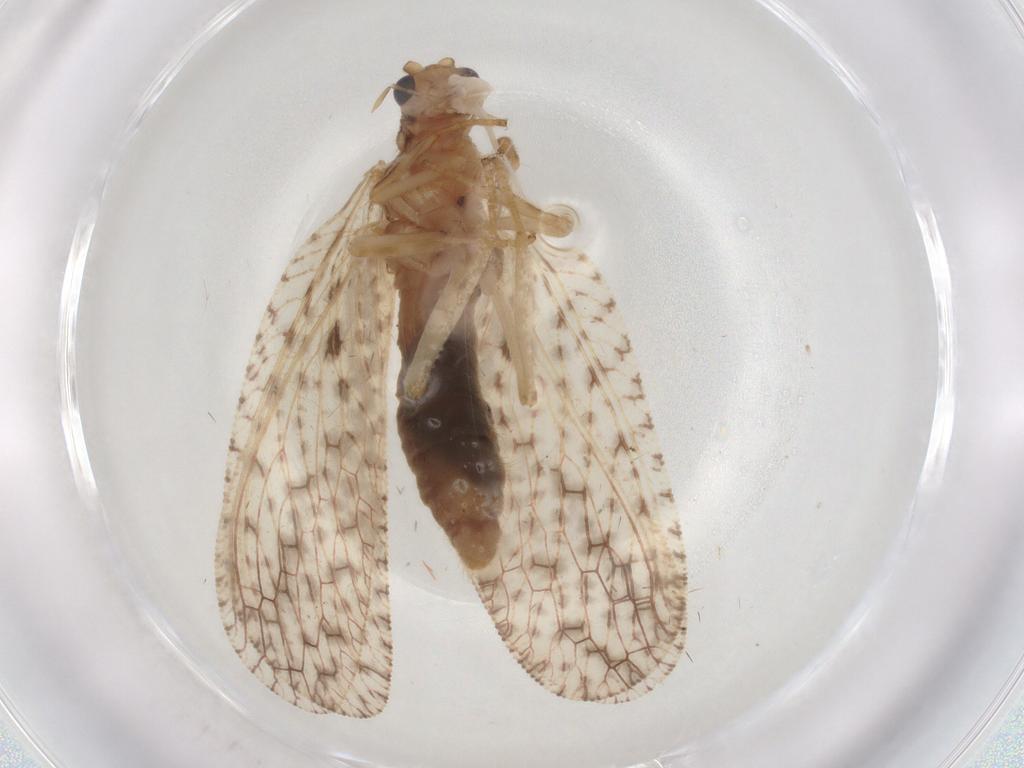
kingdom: Animalia
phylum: Arthropoda
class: Insecta
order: Neuroptera
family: Hemerobiidae
